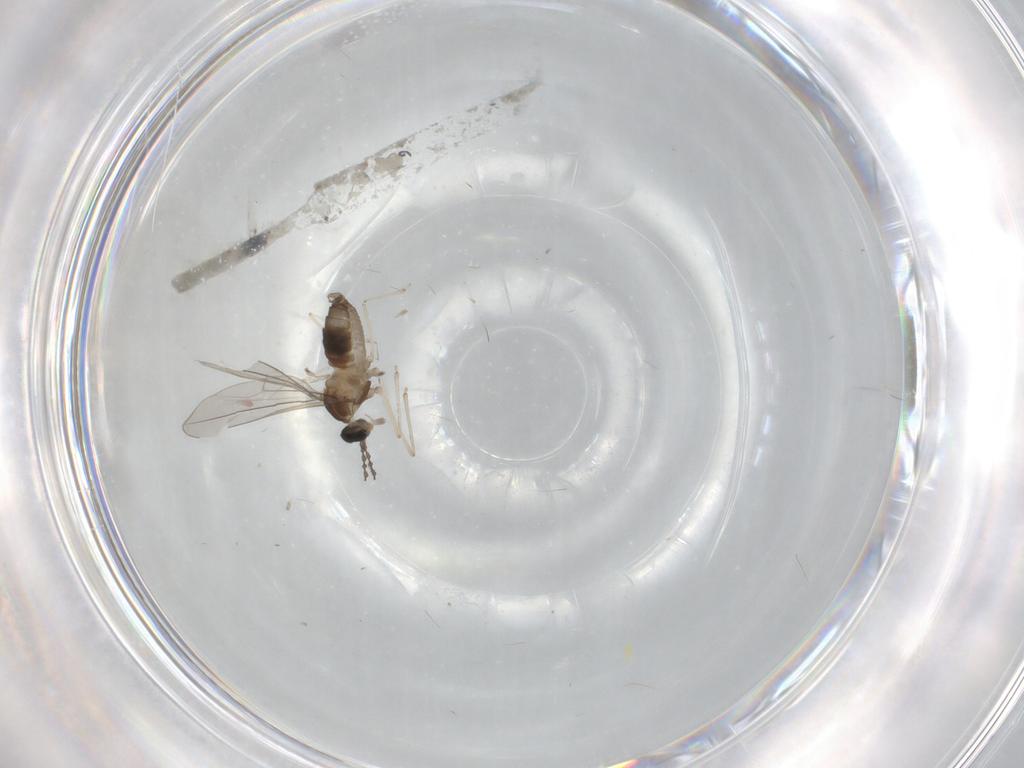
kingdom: Animalia
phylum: Arthropoda
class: Insecta
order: Diptera
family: Chironomidae
